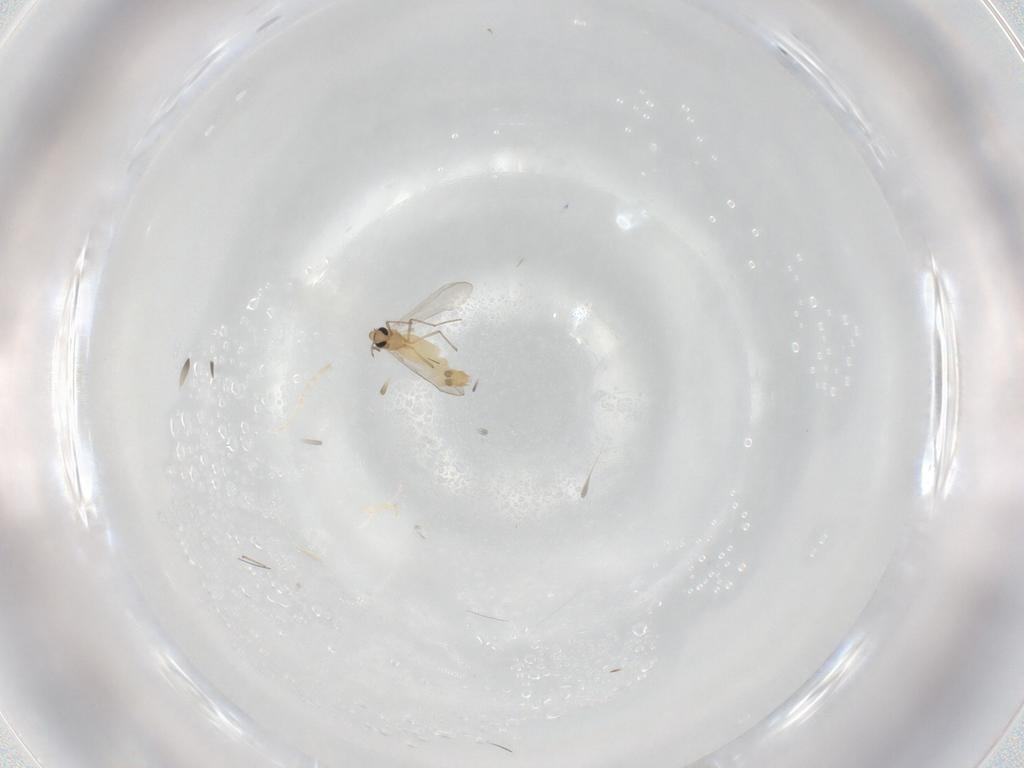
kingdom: Animalia
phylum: Arthropoda
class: Insecta
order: Diptera
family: Chironomidae
